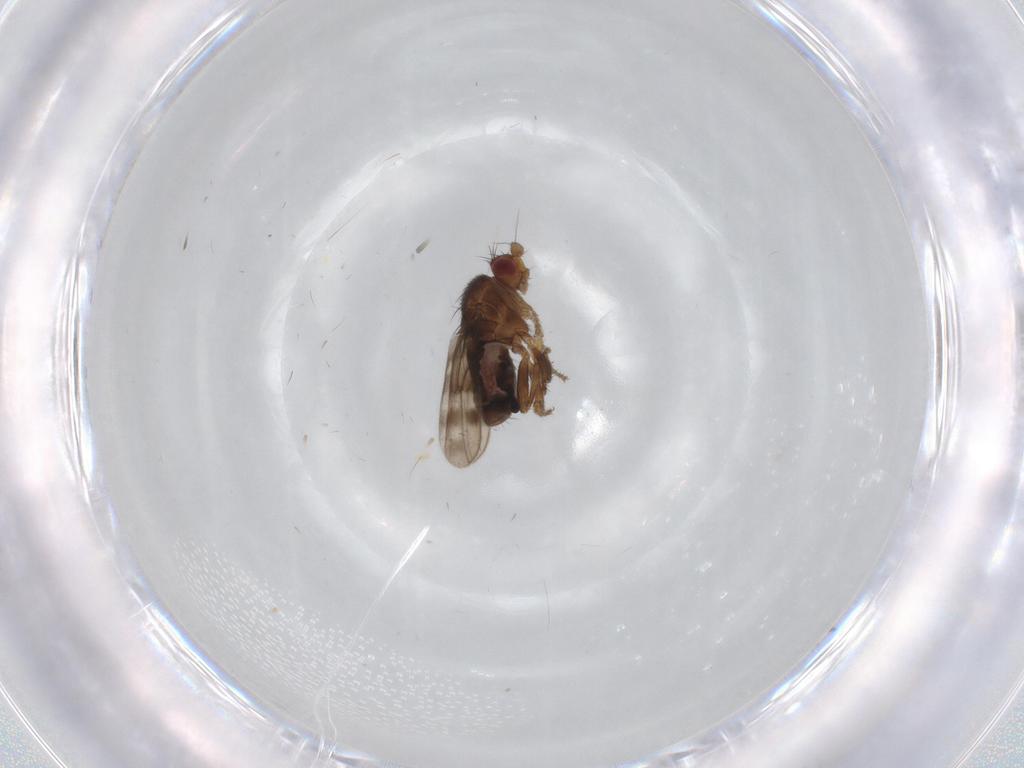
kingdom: Animalia
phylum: Arthropoda
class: Insecta
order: Diptera
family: Sphaeroceridae
